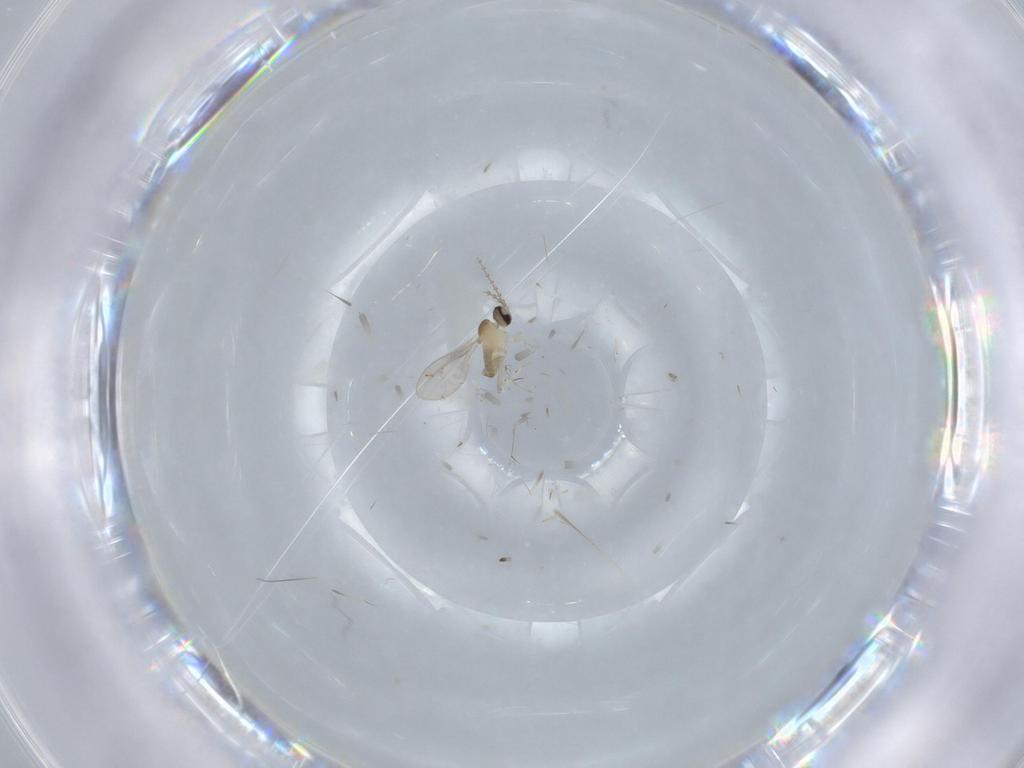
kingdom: Animalia
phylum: Arthropoda
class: Insecta
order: Diptera
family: Cecidomyiidae
